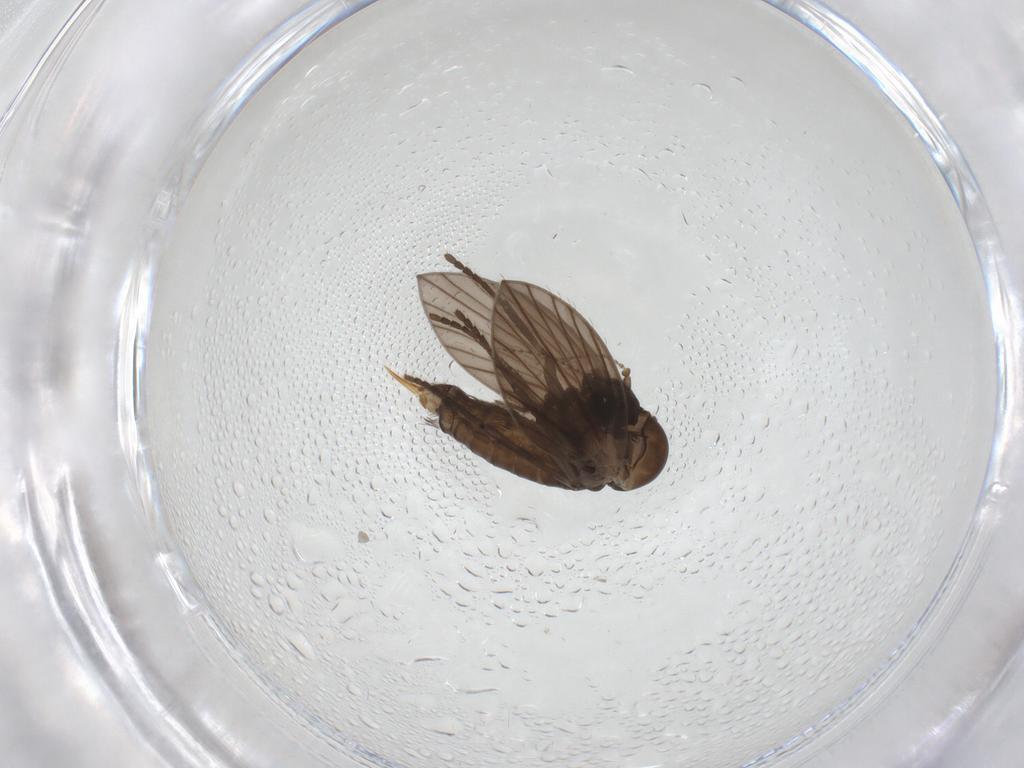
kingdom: Animalia
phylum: Arthropoda
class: Insecta
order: Diptera
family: Psychodidae
